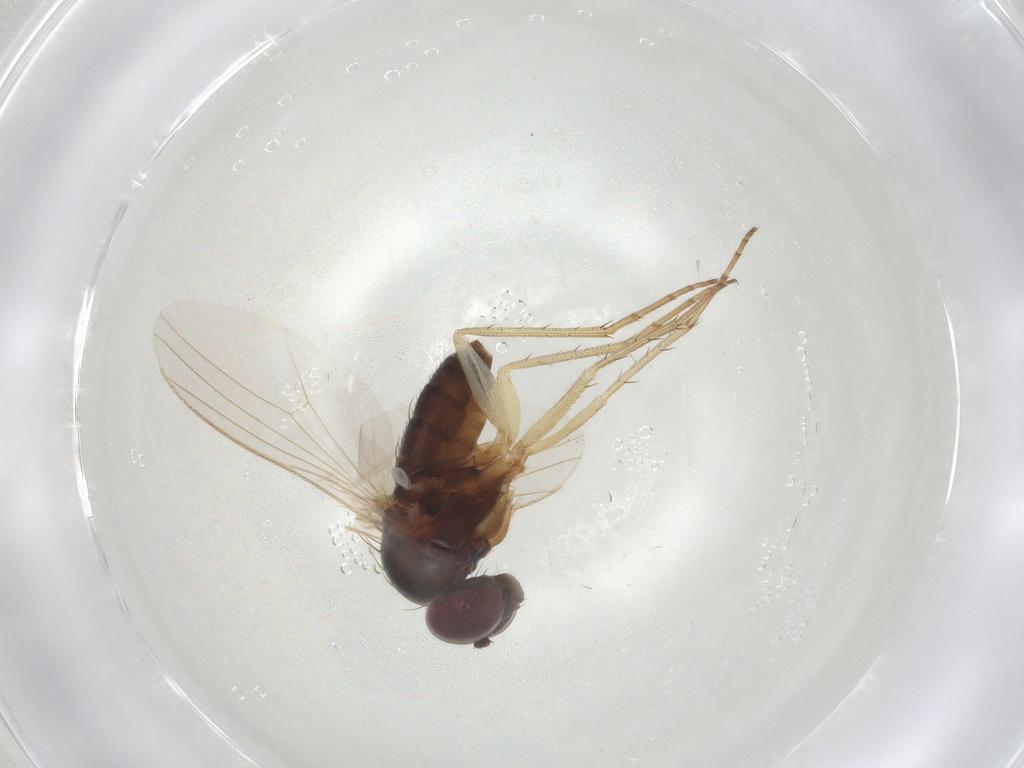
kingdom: Animalia
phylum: Arthropoda
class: Insecta
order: Diptera
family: Dolichopodidae
